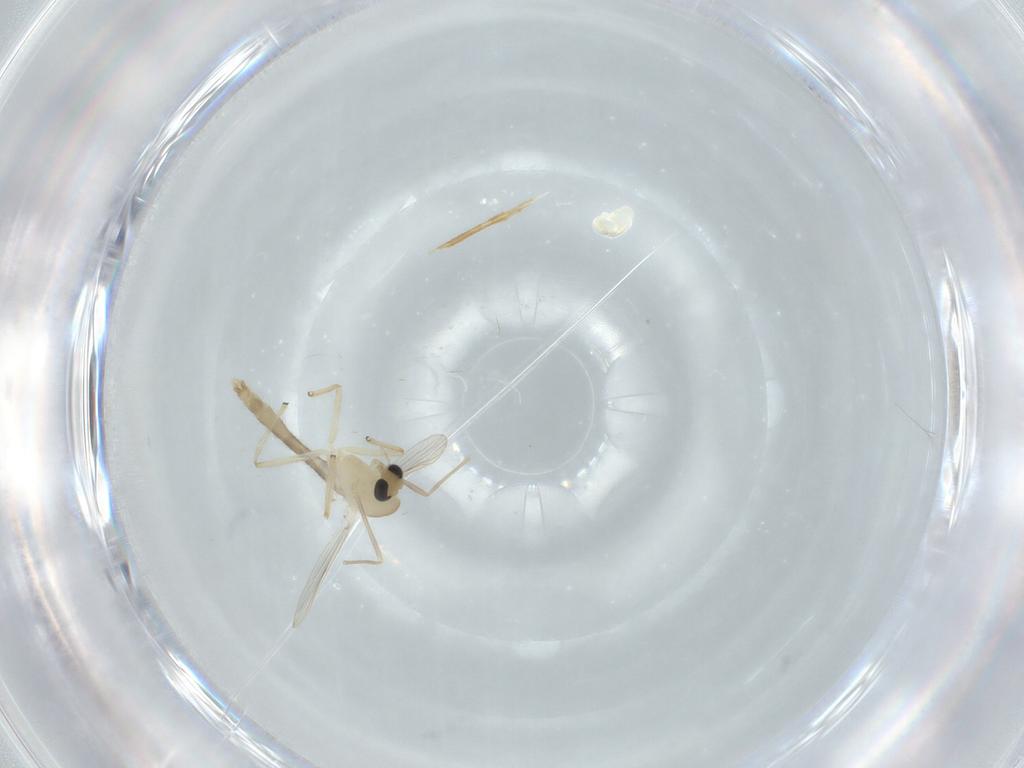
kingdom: Animalia
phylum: Arthropoda
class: Insecta
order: Diptera
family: Chironomidae
